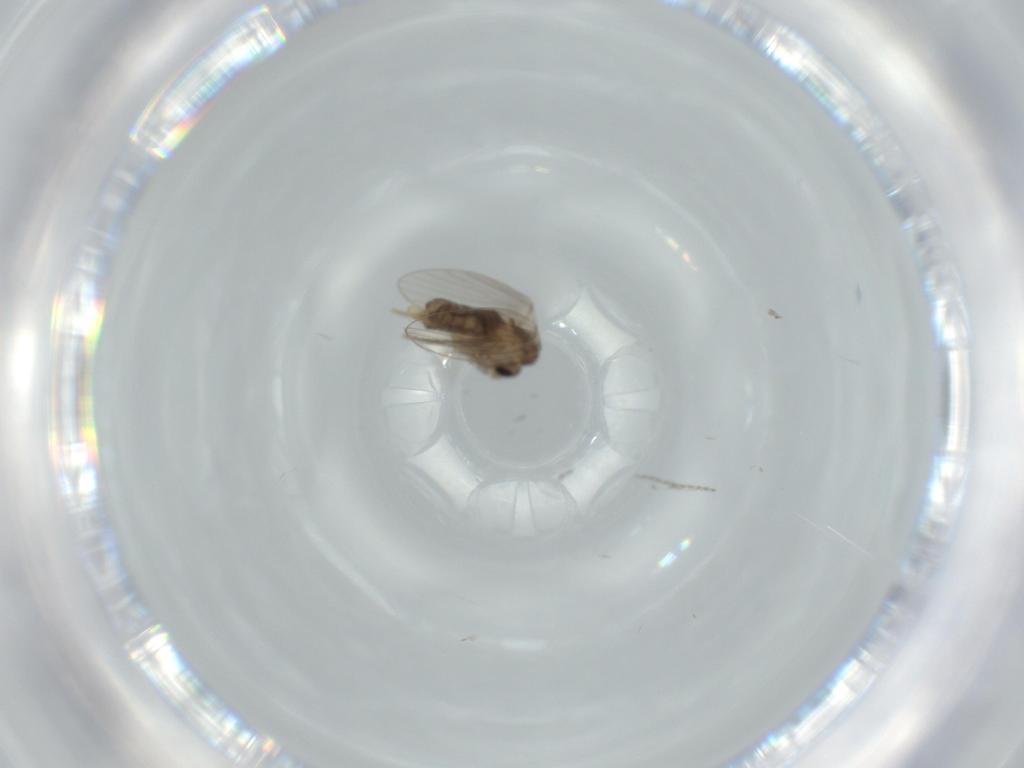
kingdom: Animalia
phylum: Arthropoda
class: Insecta
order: Diptera
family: Psychodidae
